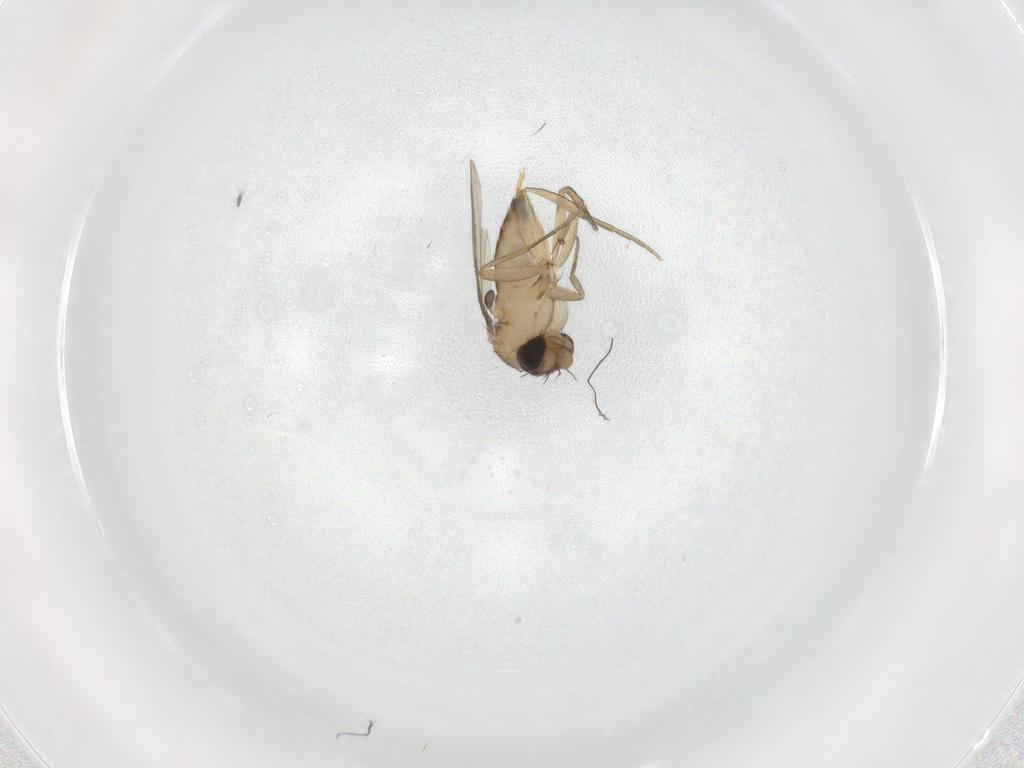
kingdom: Animalia
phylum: Arthropoda
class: Insecta
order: Diptera
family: Phoridae
